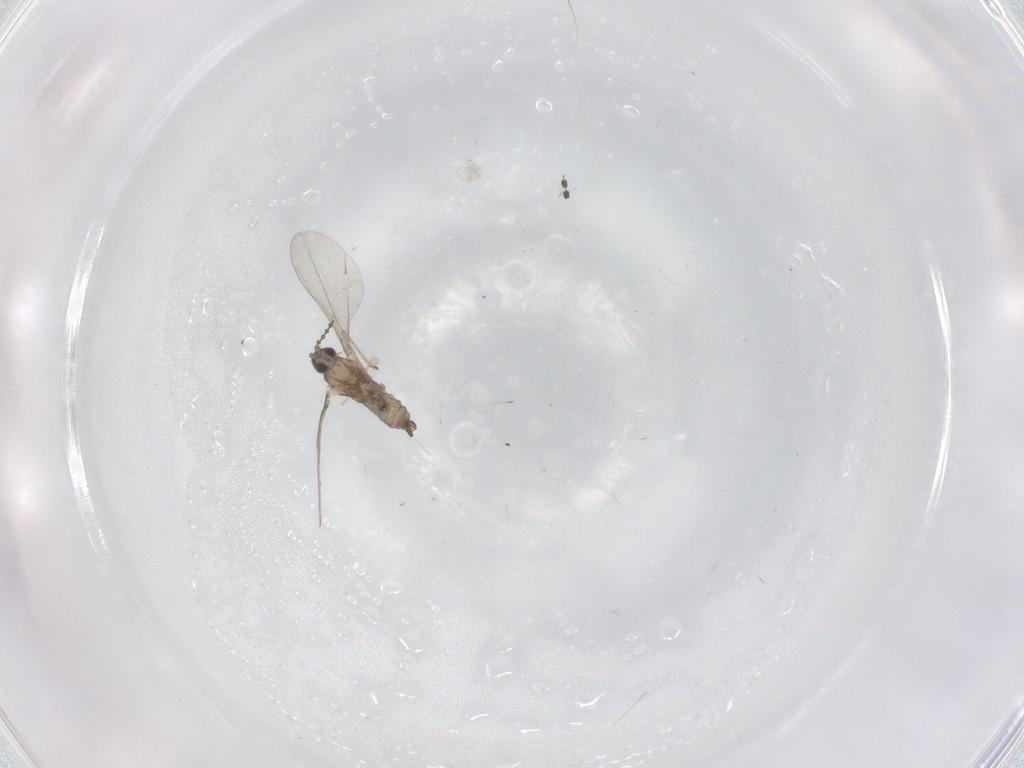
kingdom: Animalia
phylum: Arthropoda
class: Insecta
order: Diptera
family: Cecidomyiidae
